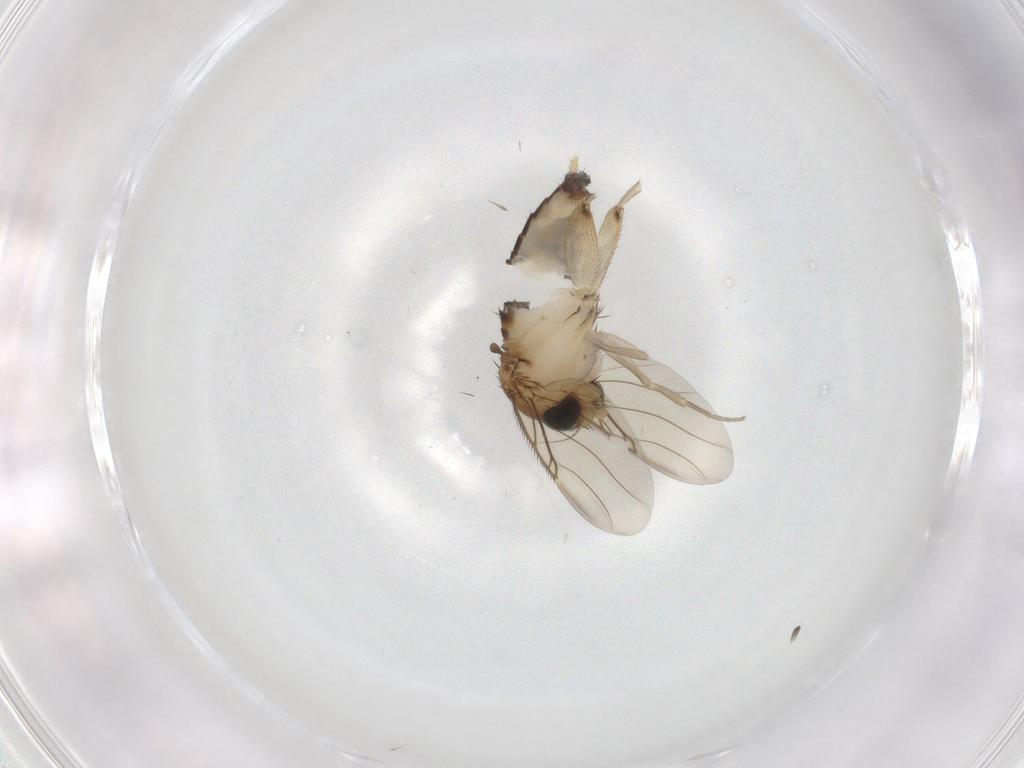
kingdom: Animalia
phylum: Arthropoda
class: Insecta
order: Diptera
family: Phoridae
